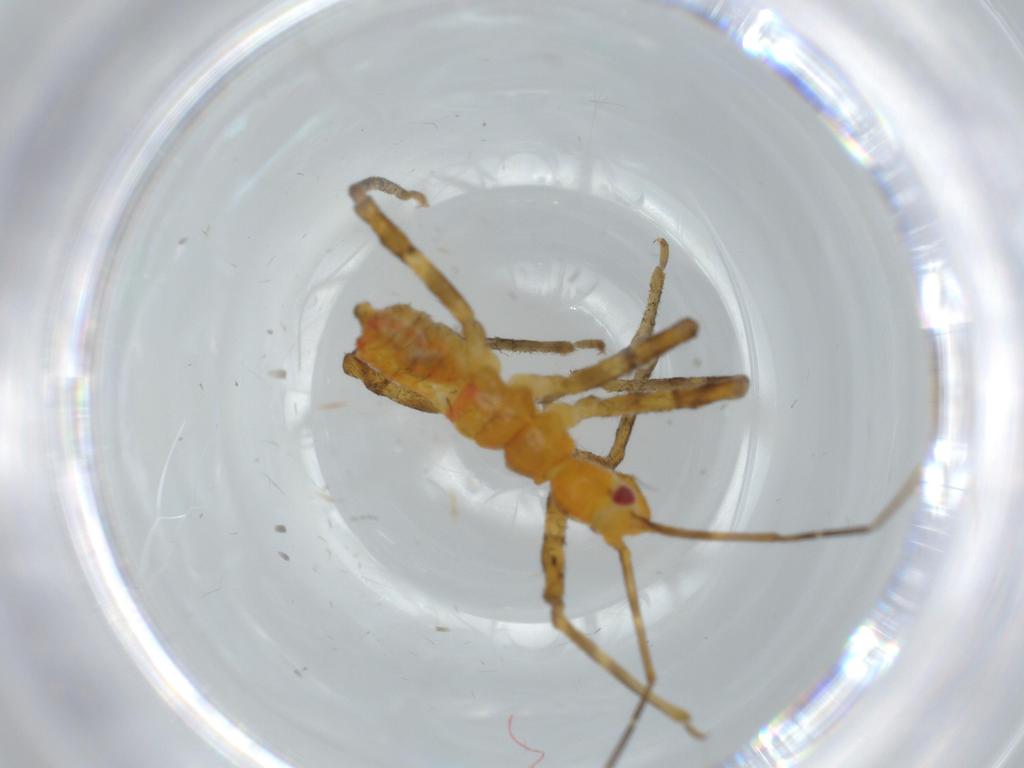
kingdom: Animalia
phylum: Arthropoda
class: Insecta
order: Hemiptera
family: Reduviidae
